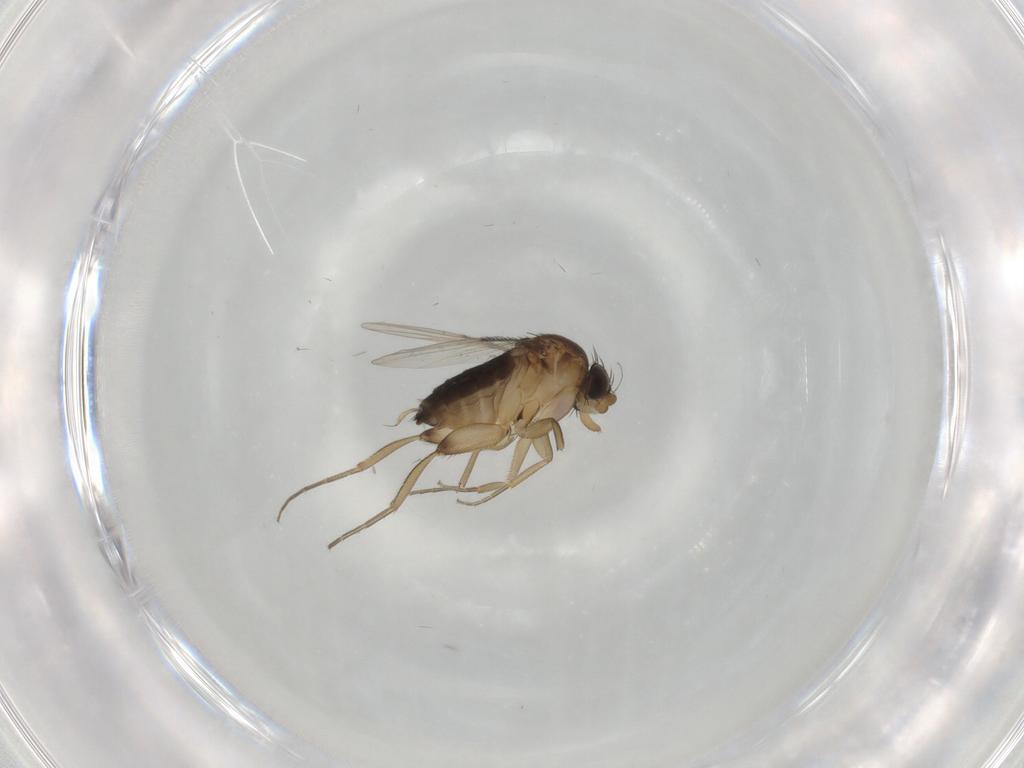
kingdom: Animalia
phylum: Arthropoda
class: Insecta
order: Diptera
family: Phoridae
